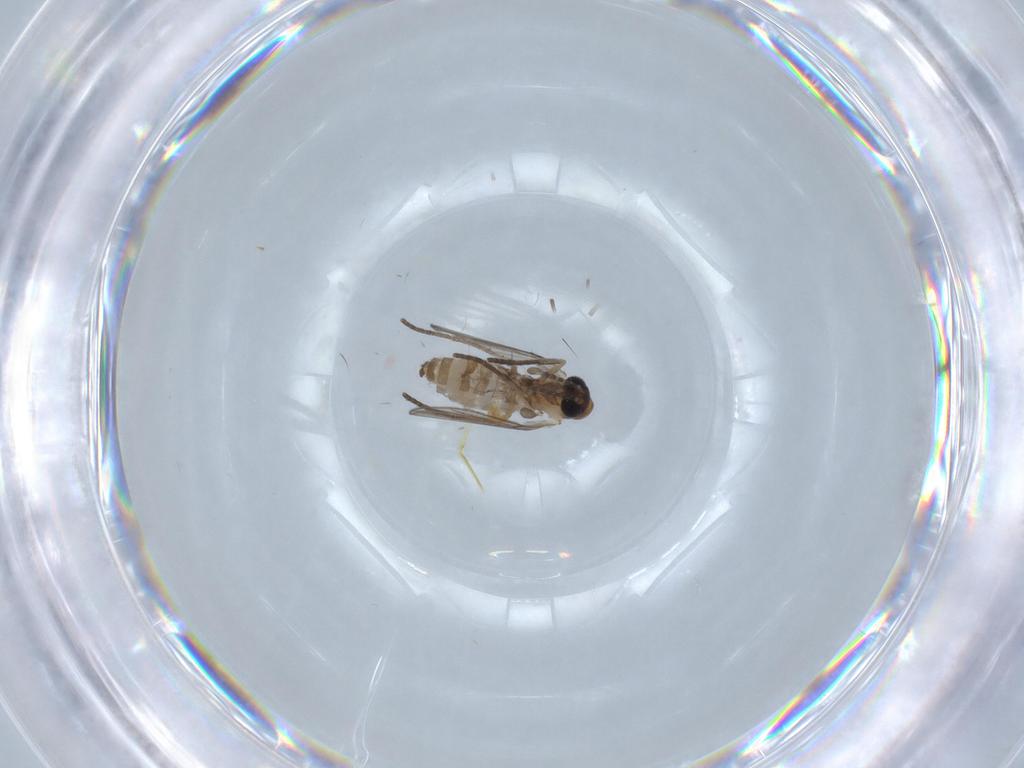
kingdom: Animalia
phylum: Arthropoda
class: Insecta
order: Diptera
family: Psychodidae
